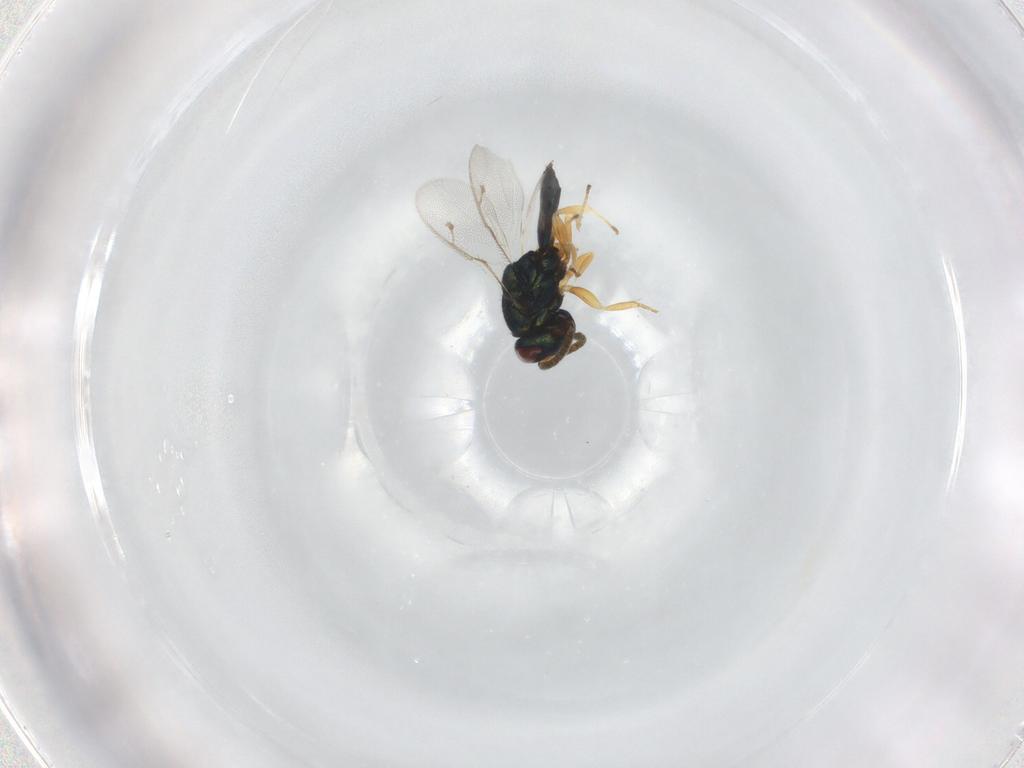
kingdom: Animalia
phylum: Arthropoda
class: Insecta
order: Hymenoptera
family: Pteromalidae
